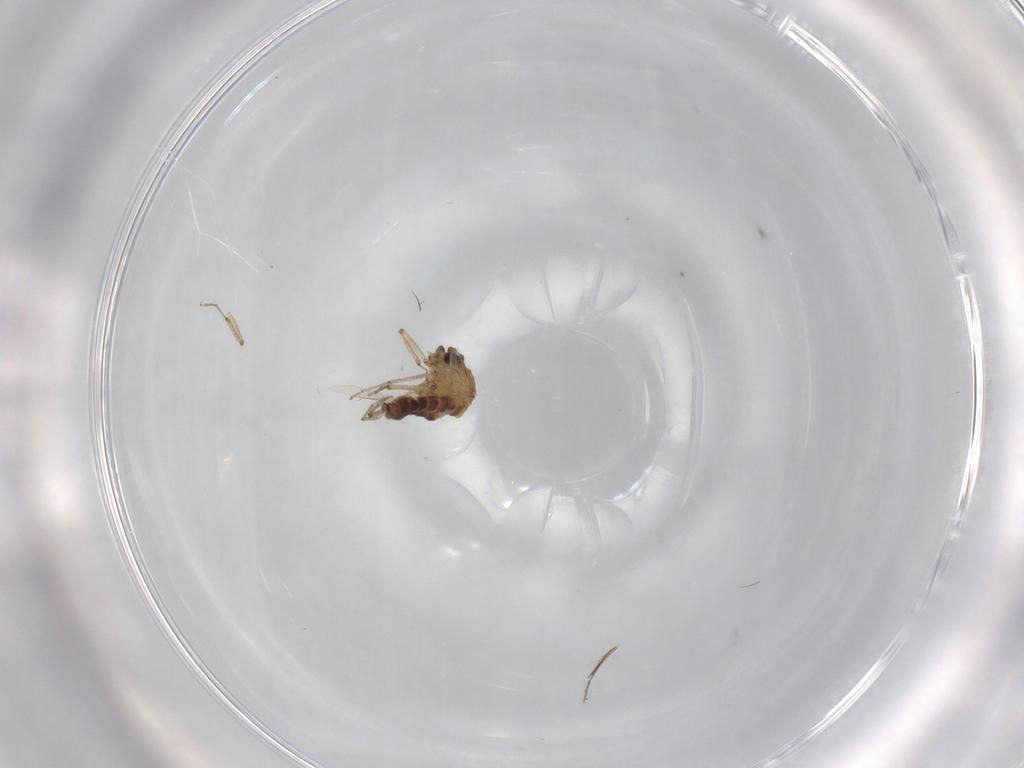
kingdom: Animalia
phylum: Arthropoda
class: Insecta
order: Diptera
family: Ceratopogonidae
